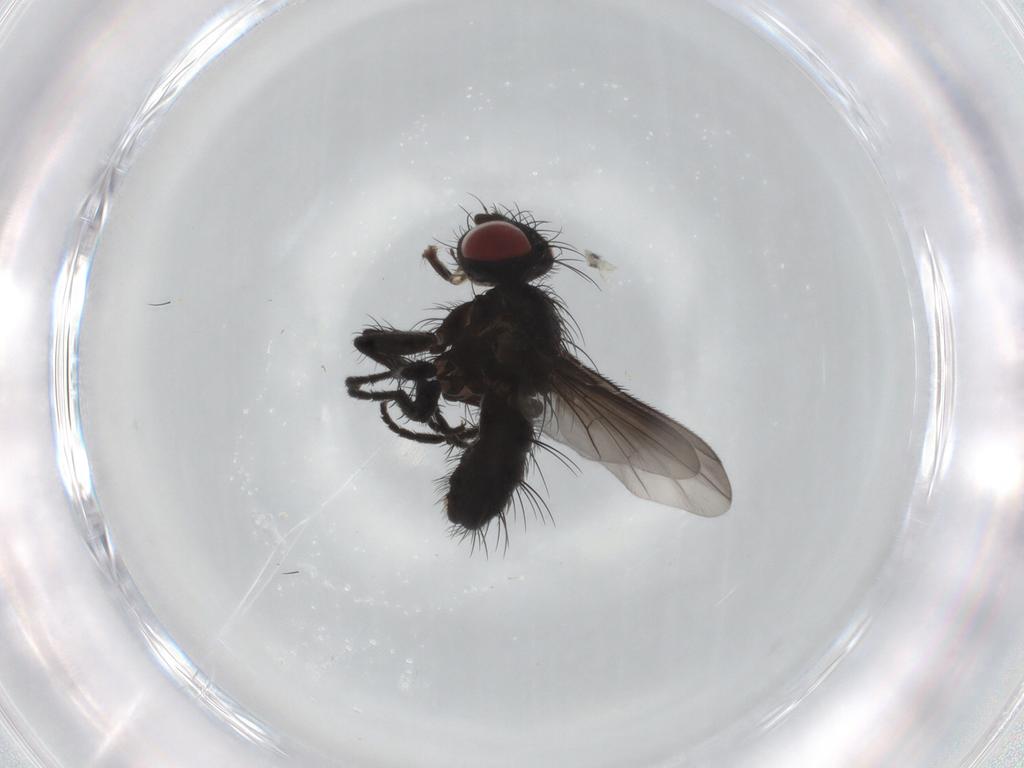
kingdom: Animalia
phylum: Arthropoda
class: Insecta
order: Diptera
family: Tachinidae
